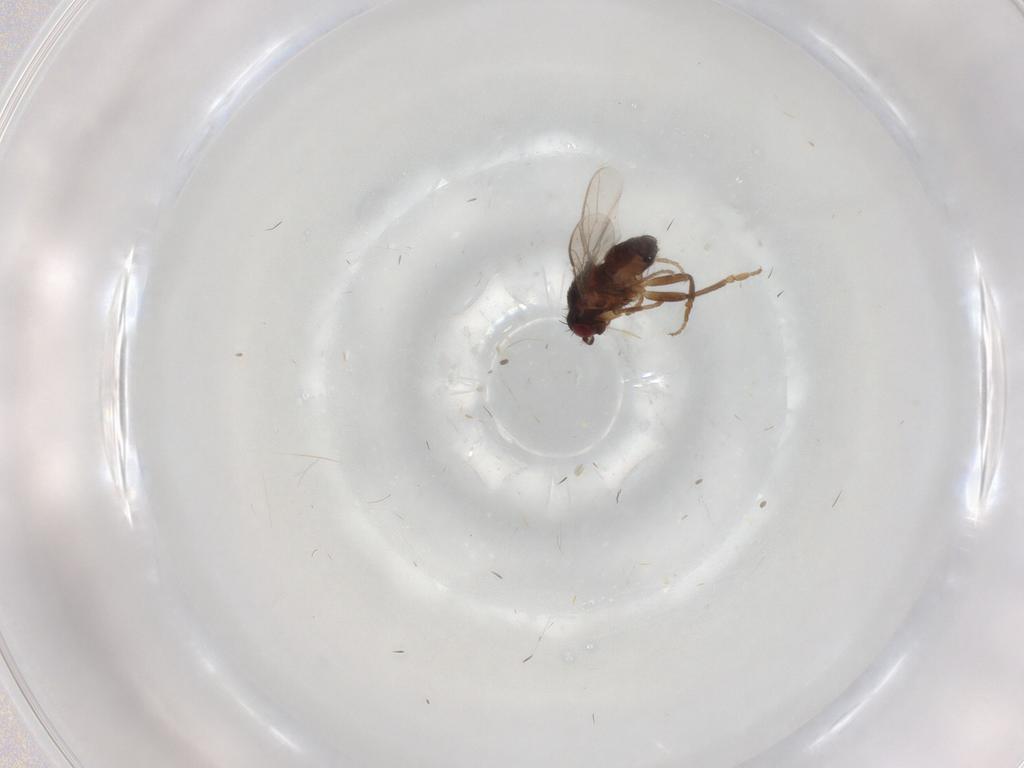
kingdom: Animalia
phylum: Arthropoda
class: Insecta
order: Diptera
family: Sphaeroceridae
